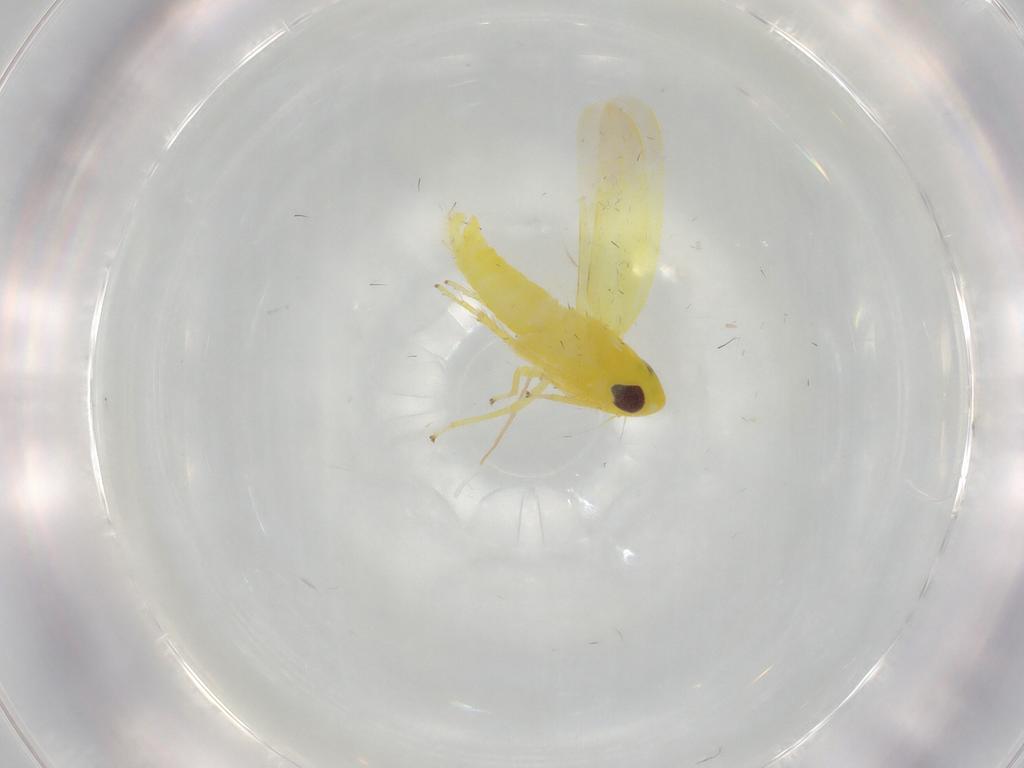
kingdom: Animalia
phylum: Arthropoda
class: Insecta
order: Hemiptera
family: Cicadellidae
